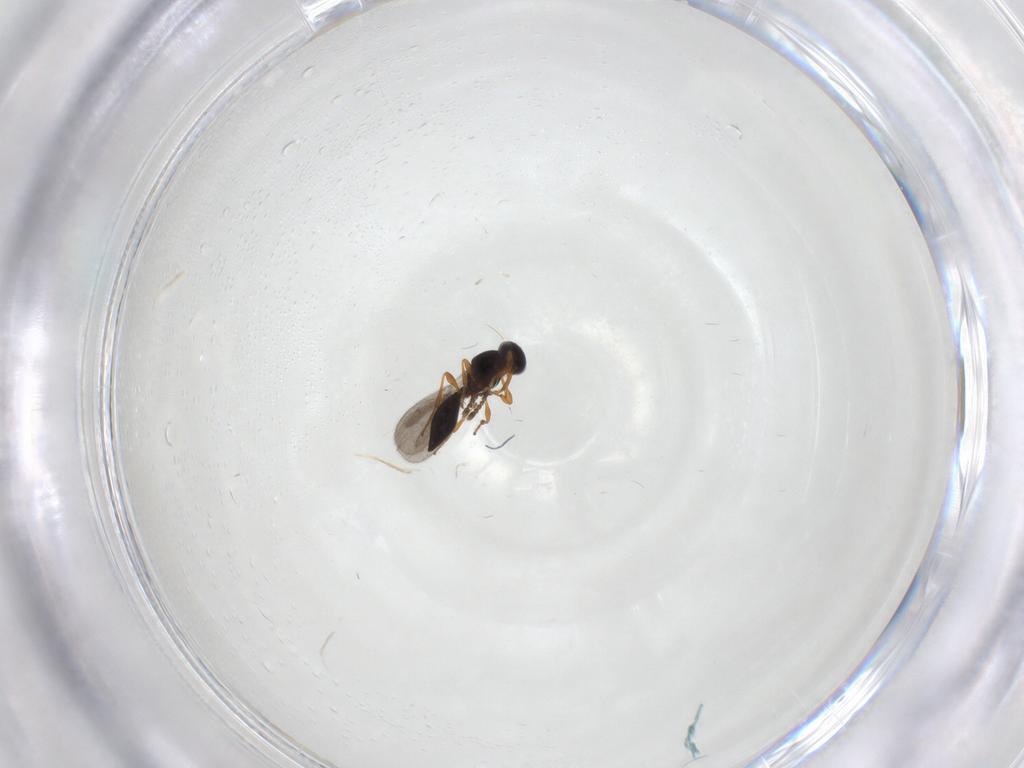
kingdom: Animalia
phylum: Arthropoda
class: Insecta
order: Hymenoptera
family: Platygastridae
